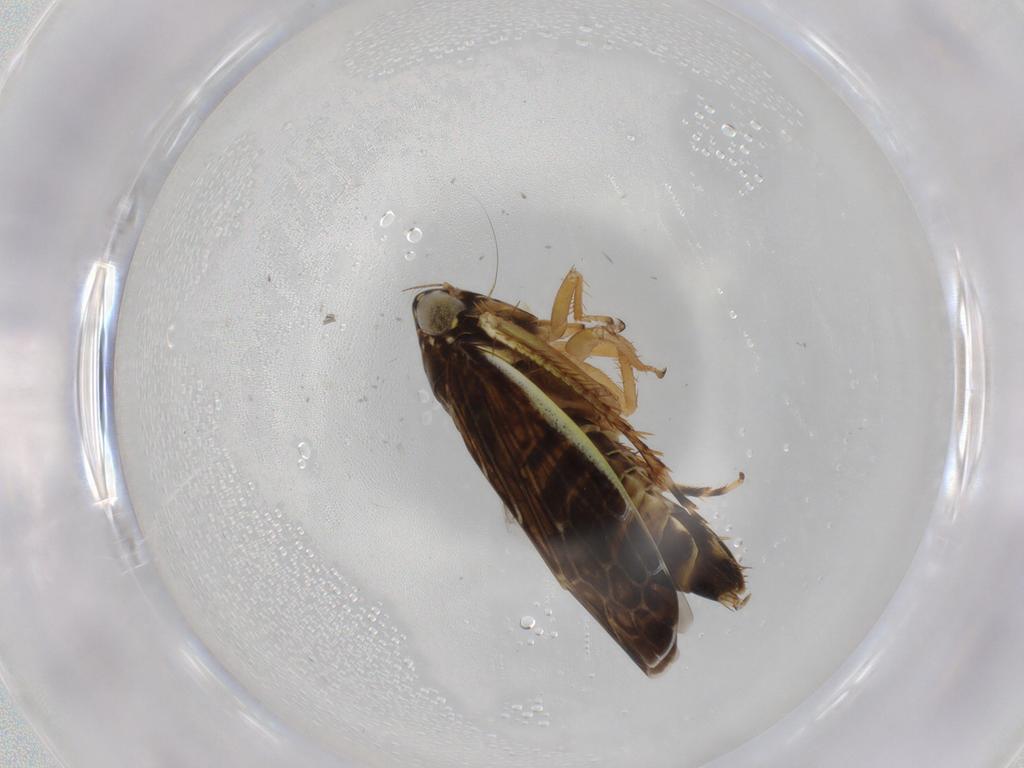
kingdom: Animalia
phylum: Arthropoda
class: Insecta
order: Hemiptera
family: Cicadellidae
